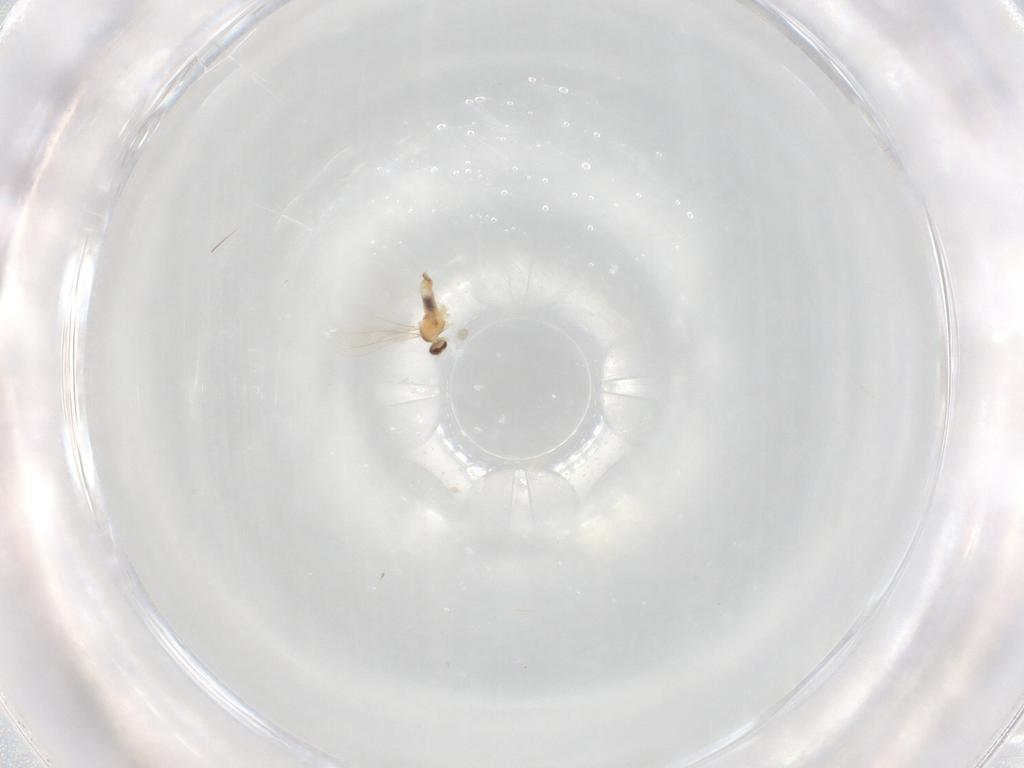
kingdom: Animalia
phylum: Arthropoda
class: Insecta
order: Diptera
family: Cecidomyiidae
